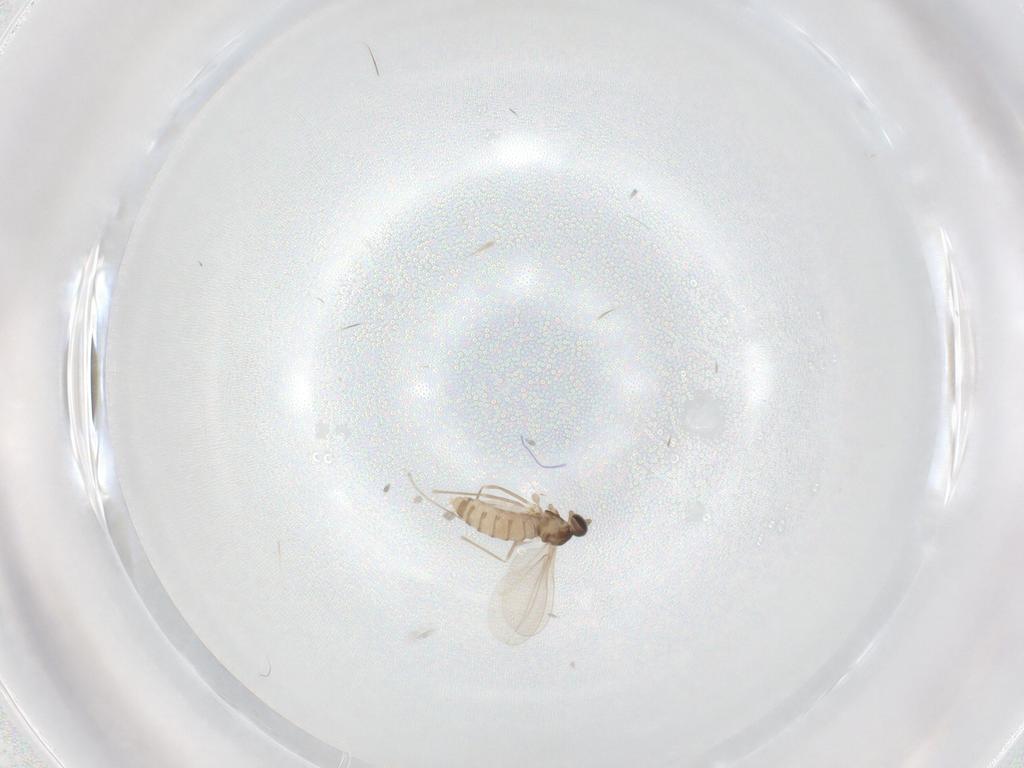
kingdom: Animalia
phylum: Arthropoda
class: Insecta
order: Diptera
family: Cecidomyiidae
